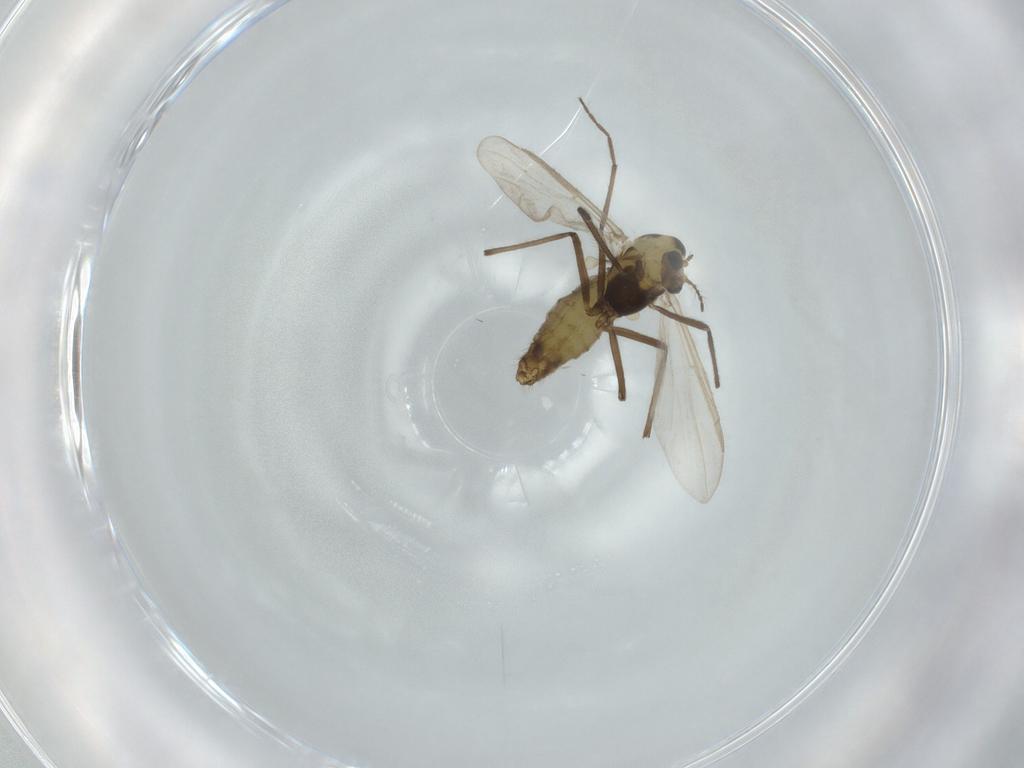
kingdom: Animalia
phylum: Arthropoda
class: Insecta
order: Diptera
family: Chironomidae
